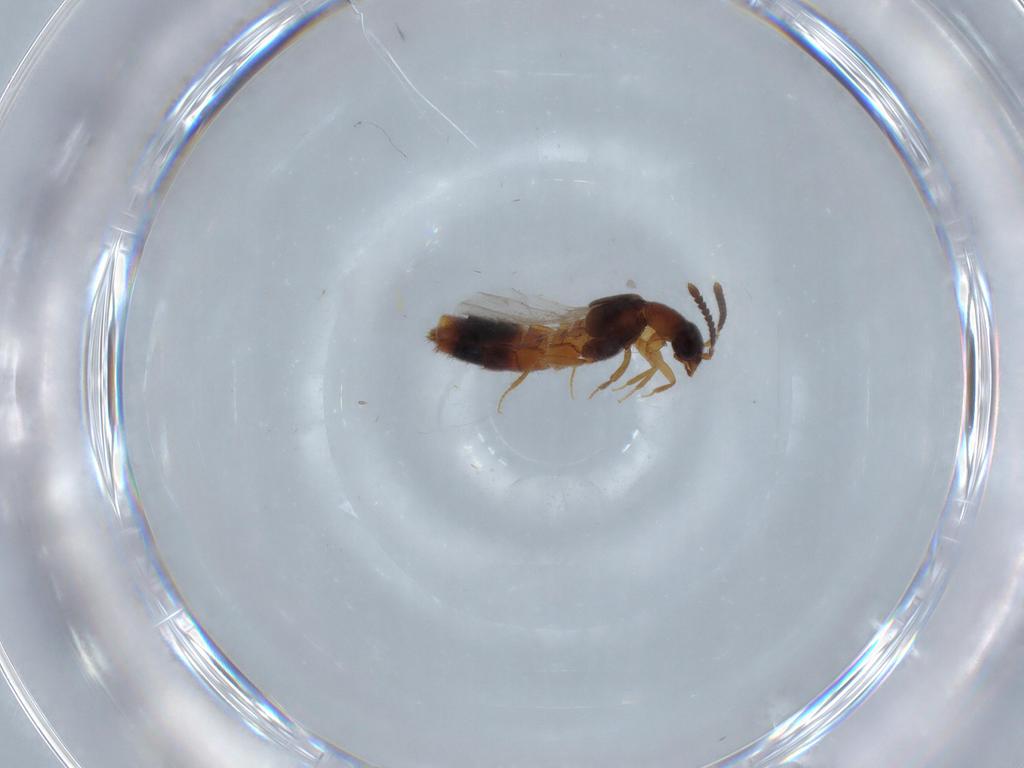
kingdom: Animalia
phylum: Arthropoda
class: Insecta
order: Coleoptera
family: Staphylinidae
